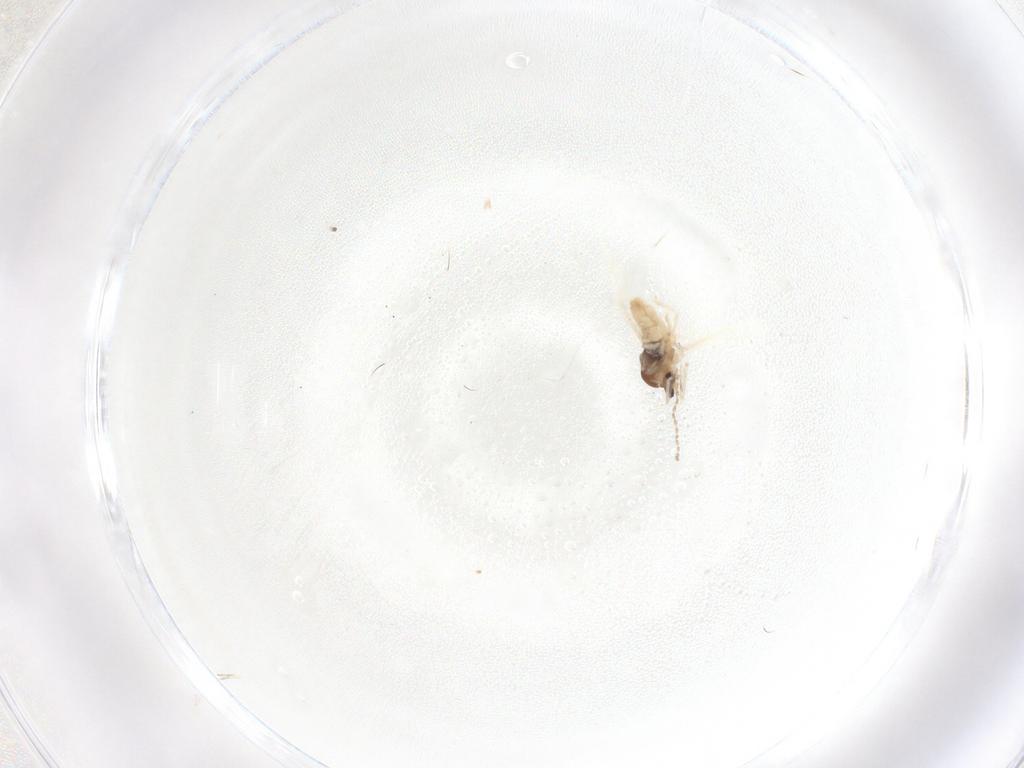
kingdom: Animalia
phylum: Arthropoda
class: Insecta
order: Diptera
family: Cecidomyiidae
